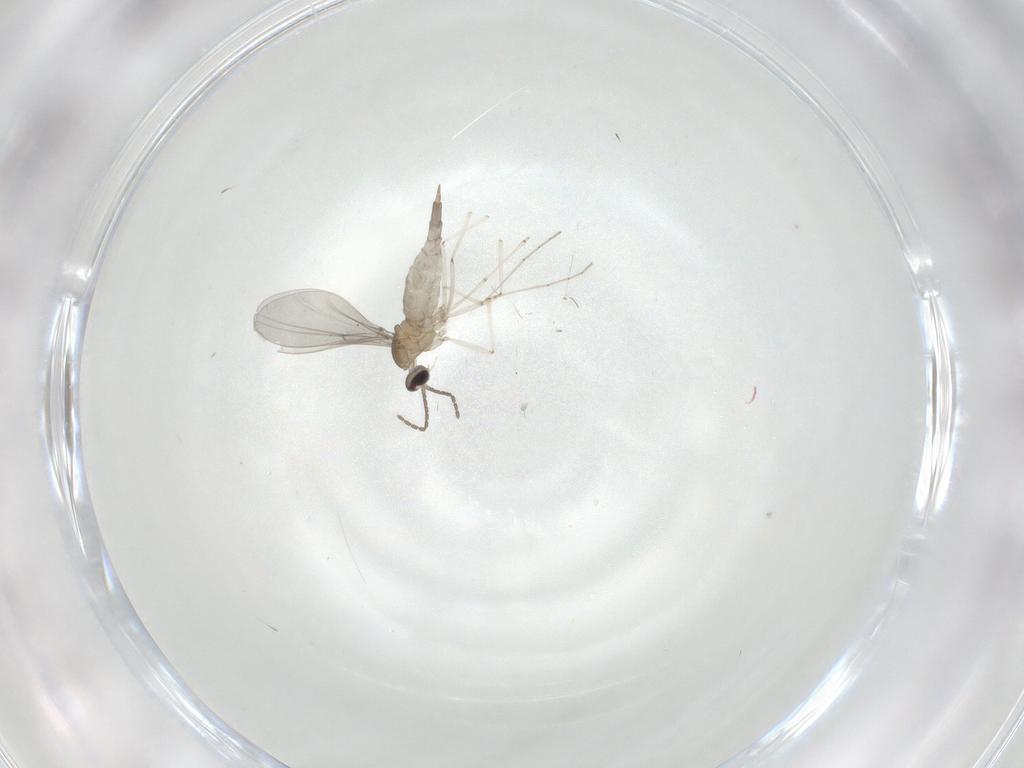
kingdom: Animalia
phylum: Arthropoda
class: Insecta
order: Diptera
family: Cecidomyiidae
